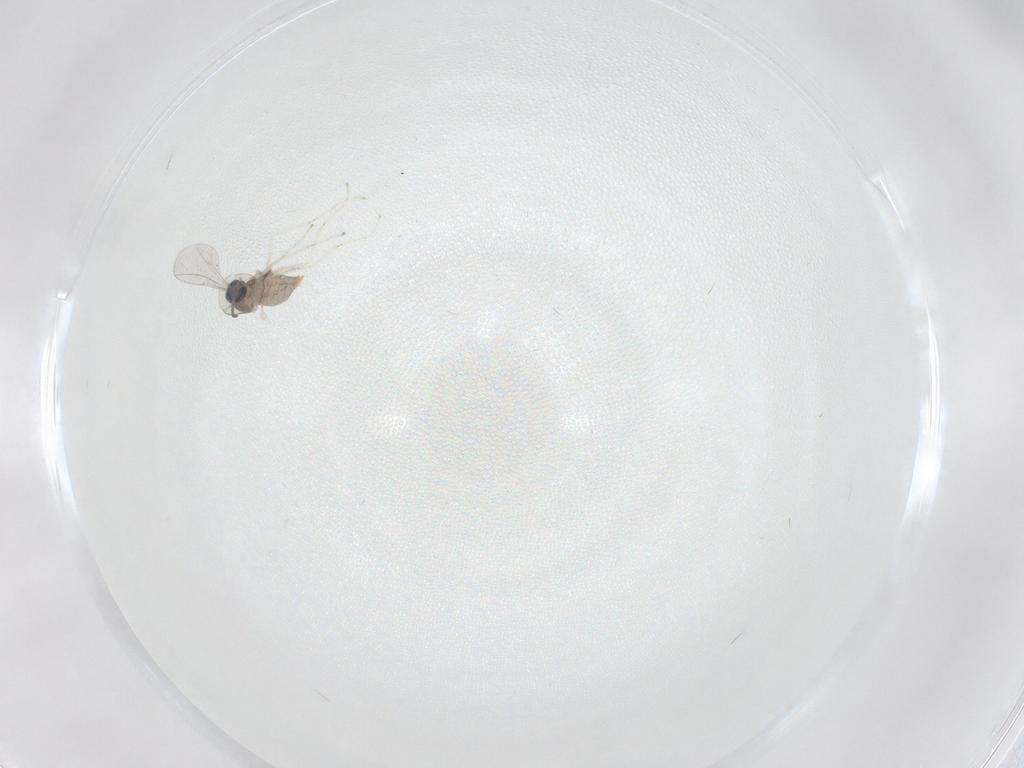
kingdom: Animalia
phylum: Arthropoda
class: Insecta
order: Diptera
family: Cecidomyiidae
